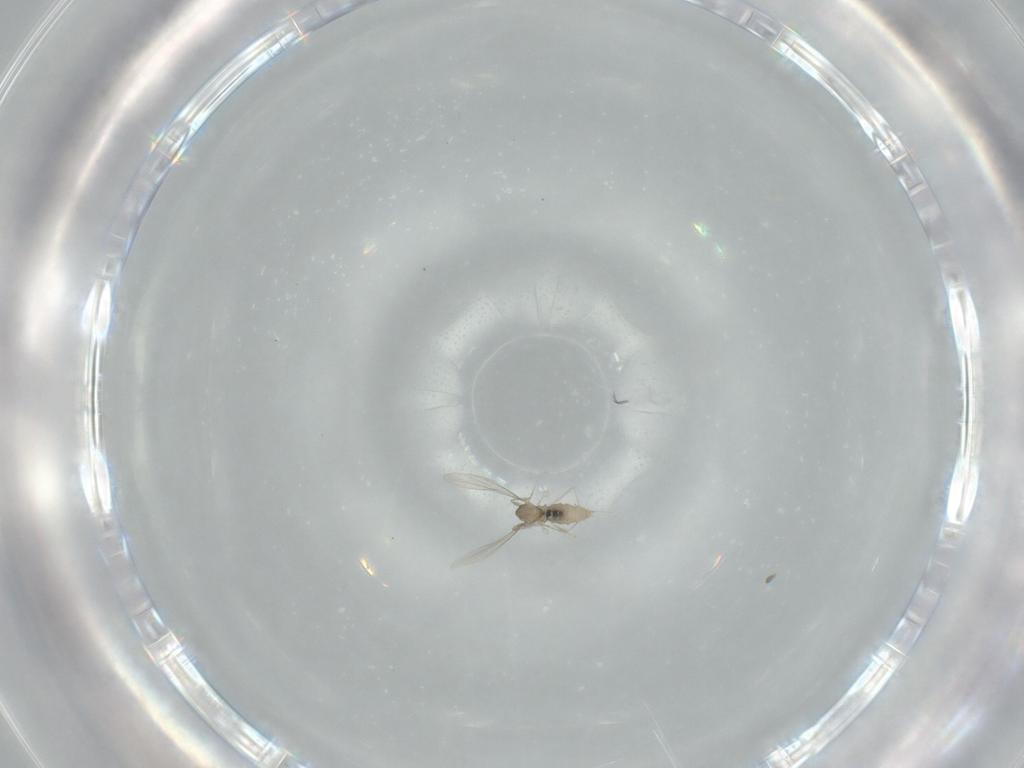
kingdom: Animalia
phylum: Arthropoda
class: Insecta
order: Diptera
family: Cecidomyiidae
